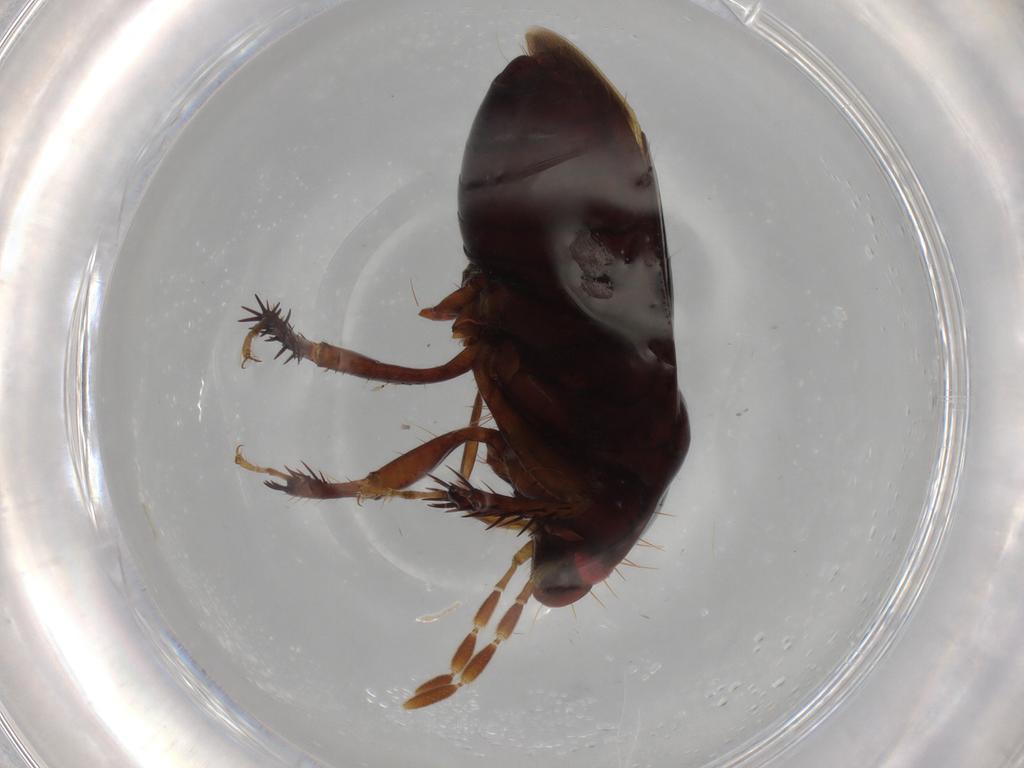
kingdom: Animalia
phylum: Arthropoda
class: Insecta
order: Hemiptera
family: Cydnidae
